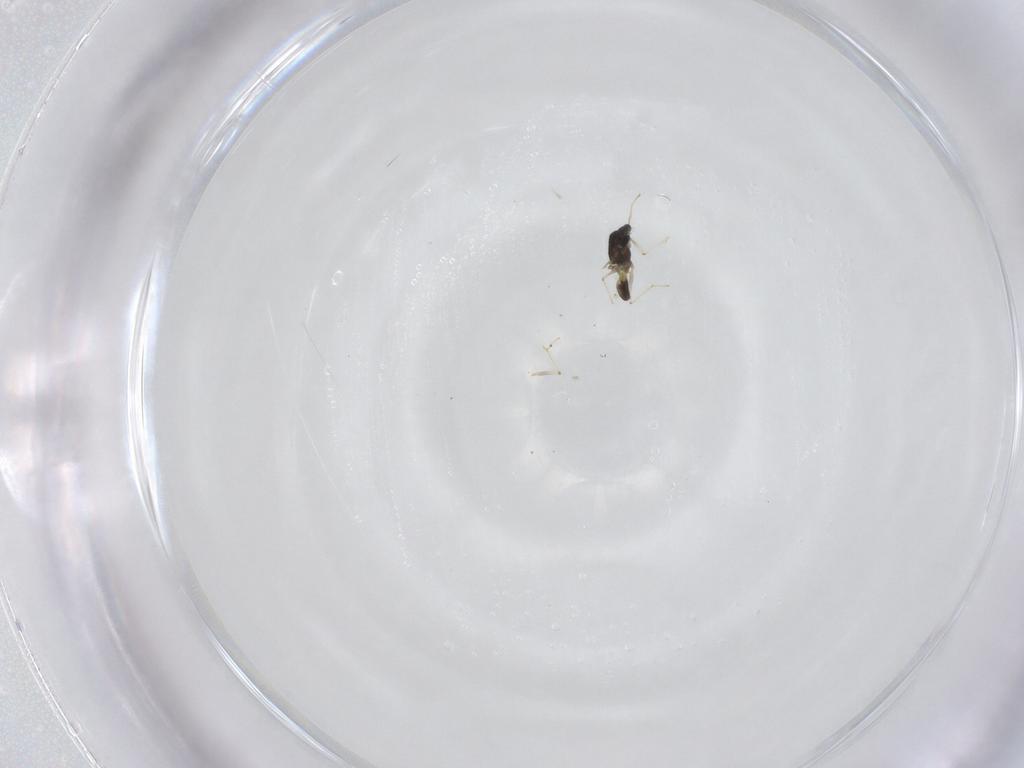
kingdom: Animalia
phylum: Arthropoda
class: Insecta
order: Diptera
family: Chironomidae
